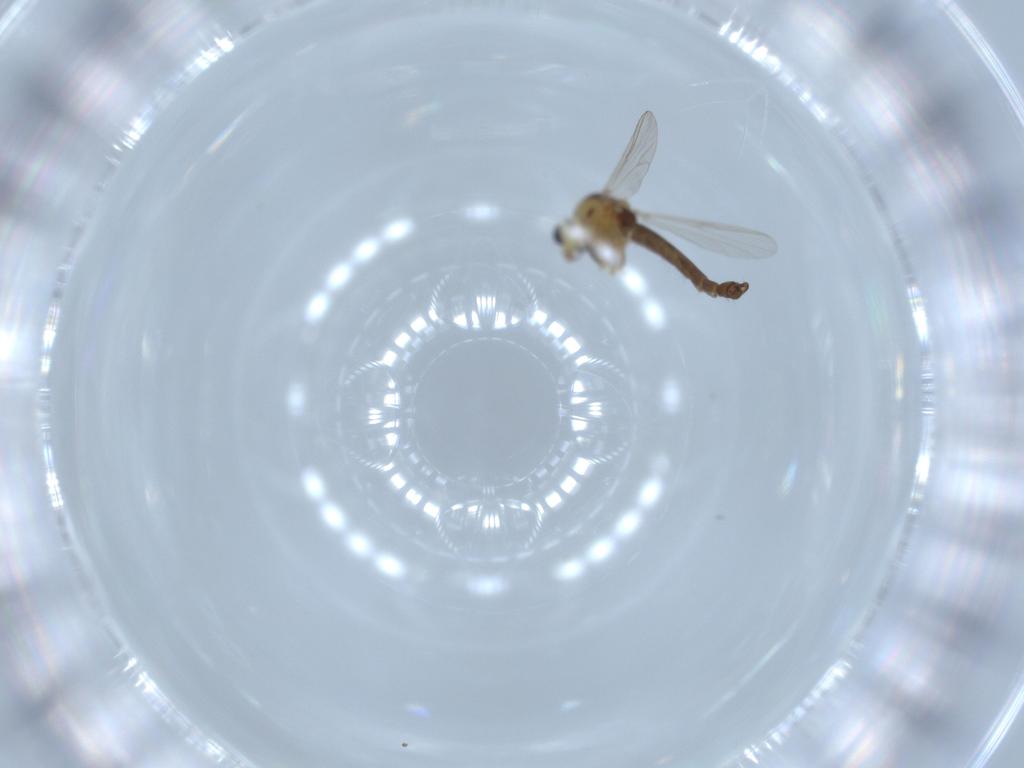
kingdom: Animalia
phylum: Arthropoda
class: Insecta
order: Diptera
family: Chironomidae
